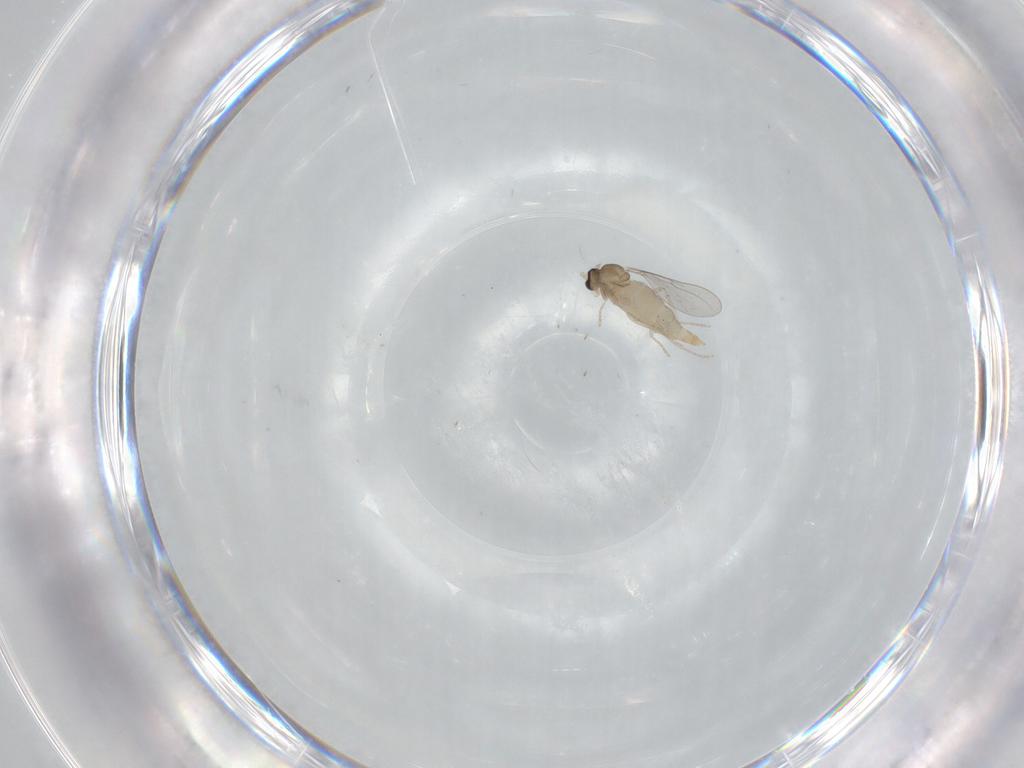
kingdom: Animalia
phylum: Arthropoda
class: Insecta
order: Diptera
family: Cecidomyiidae
